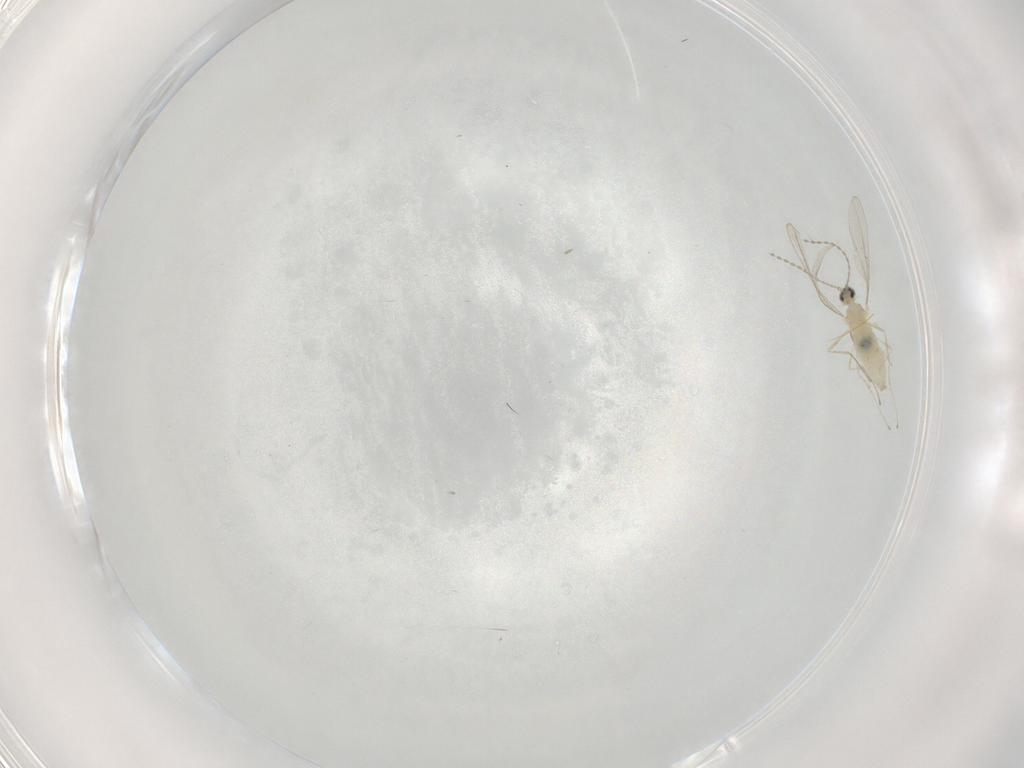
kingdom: Animalia
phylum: Arthropoda
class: Insecta
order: Diptera
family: Cecidomyiidae
